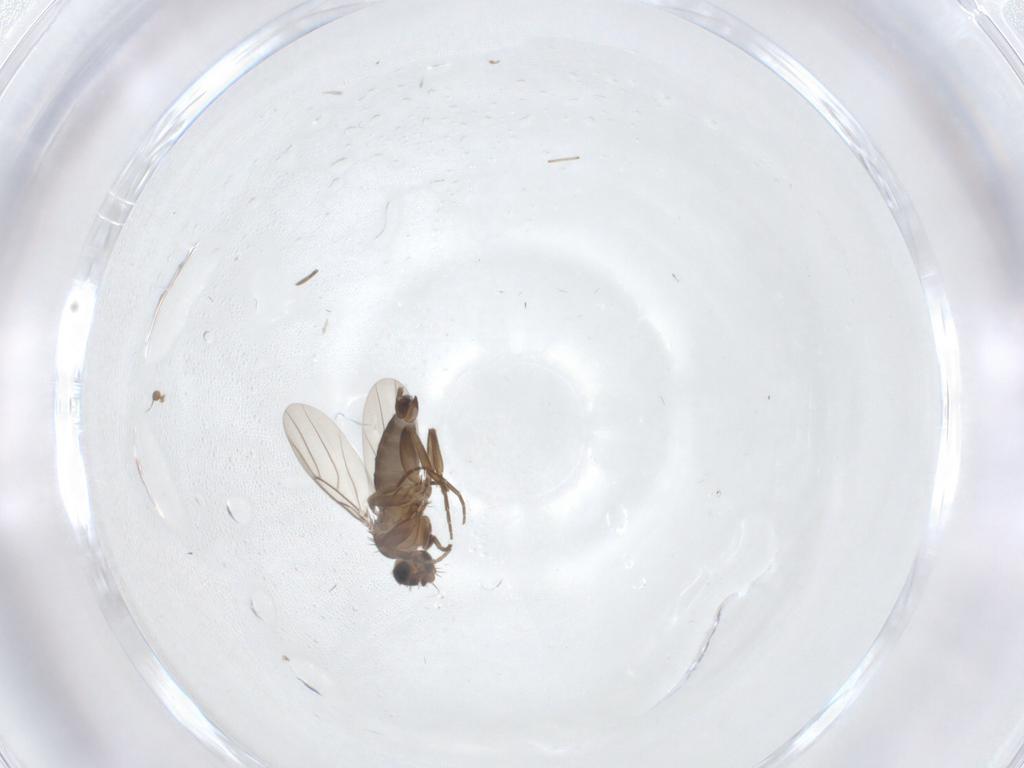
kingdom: Animalia
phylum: Arthropoda
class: Insecta
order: Diptera
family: Phoridae
